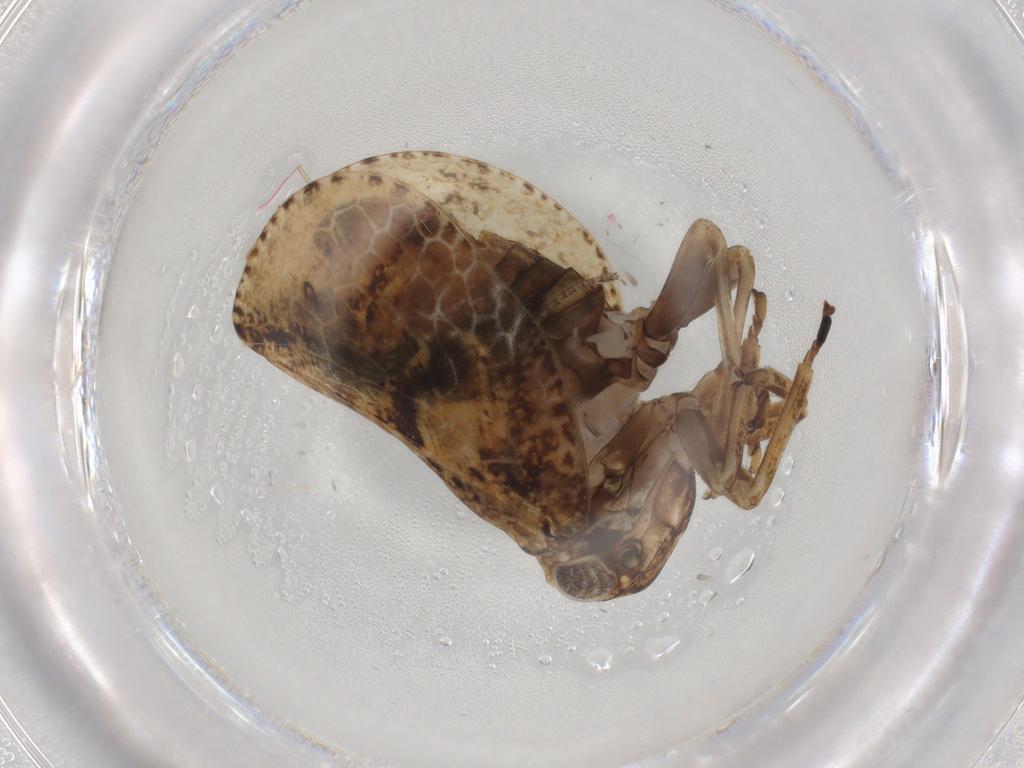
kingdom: Animalia
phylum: Arthropoda
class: Insecta
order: Hemiptera
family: Acanaloniidae
